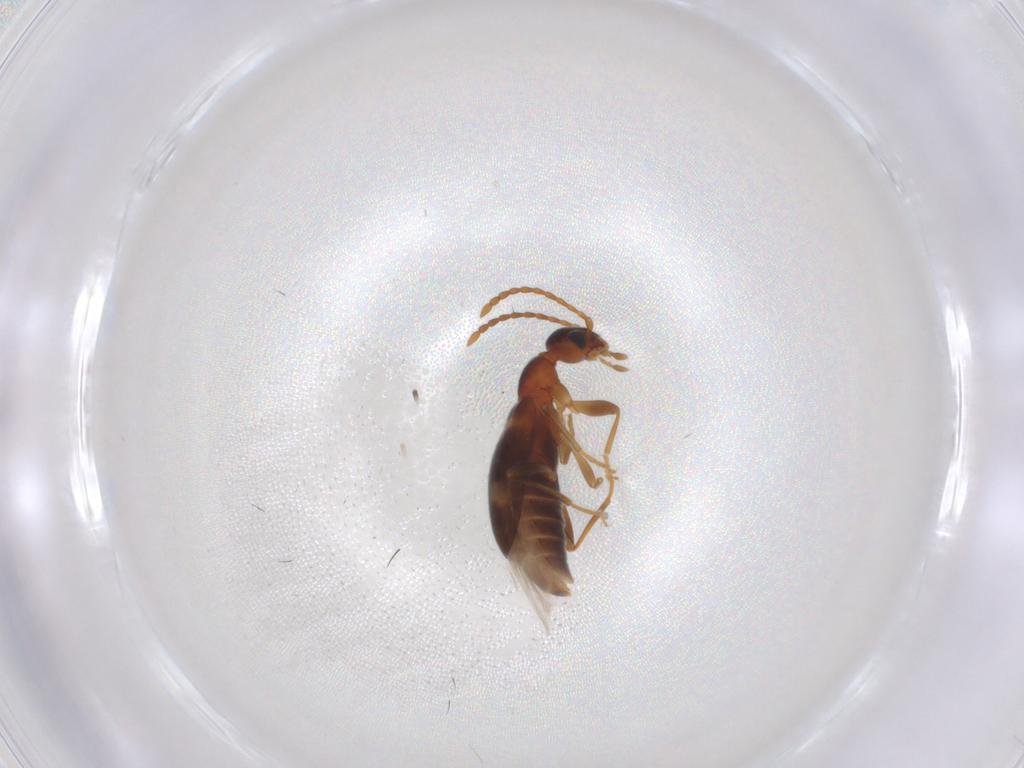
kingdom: Animalia
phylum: Arthropoda
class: Insecta
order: Coleoptera
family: Anthicidae
